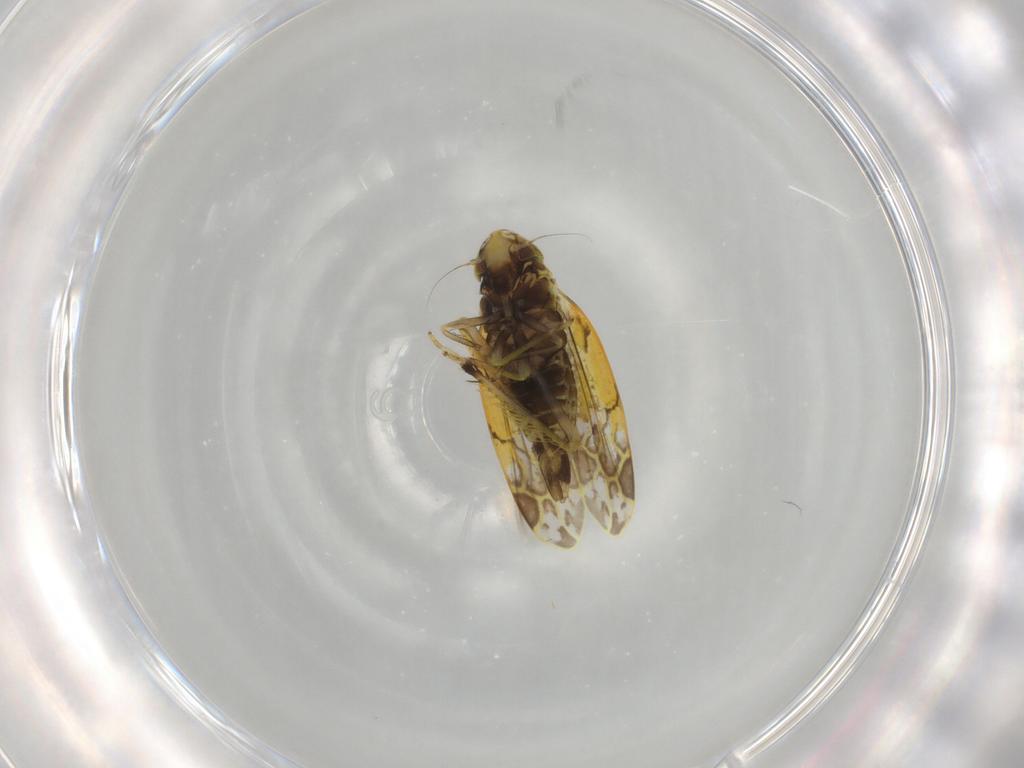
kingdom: Animalia
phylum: Arthropoda
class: Insecta
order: Hemiptera
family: Cicadellidae
